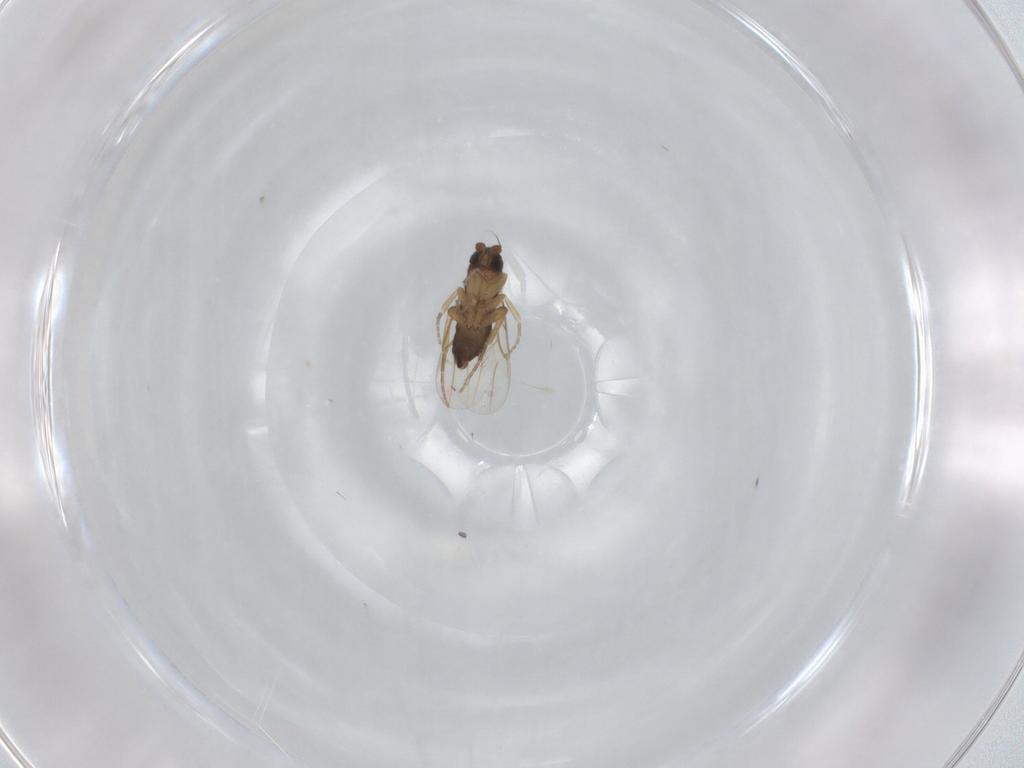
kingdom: Animalia
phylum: Arthropoda
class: Insecta
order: Diptera
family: Phoridae
